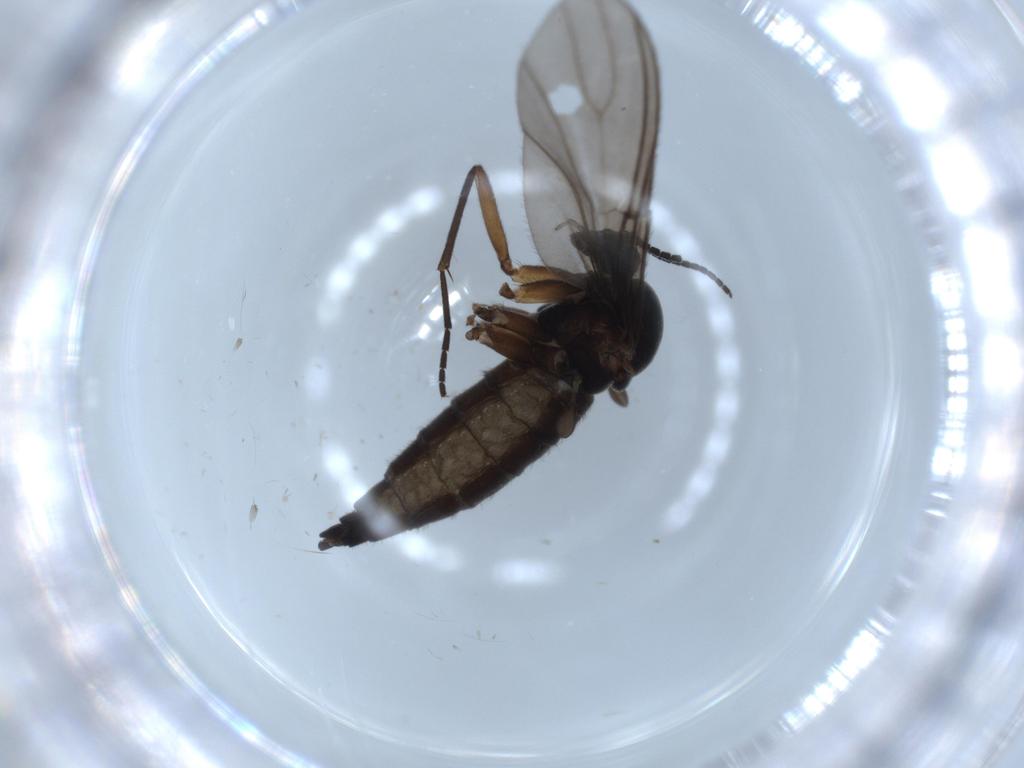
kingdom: Animalia
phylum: Arthropoda
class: Insecta
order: Diptera
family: Sciaridae
